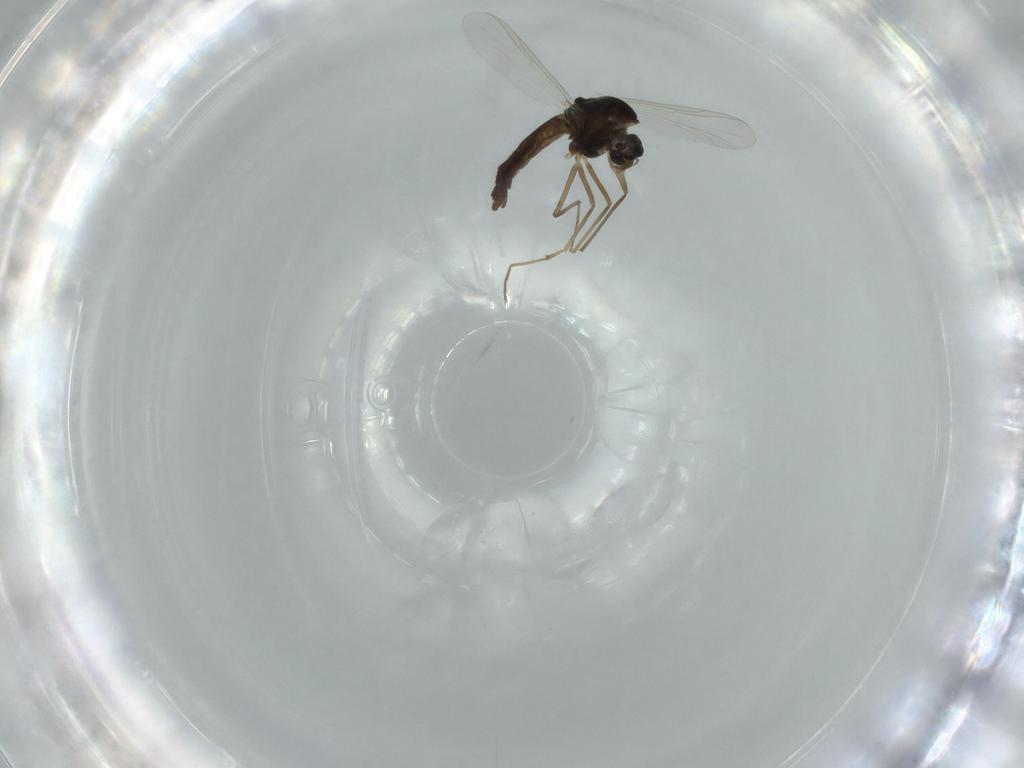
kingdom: Animalia
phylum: Arthropoda
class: Insecta
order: Diptera
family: Chironomidae
